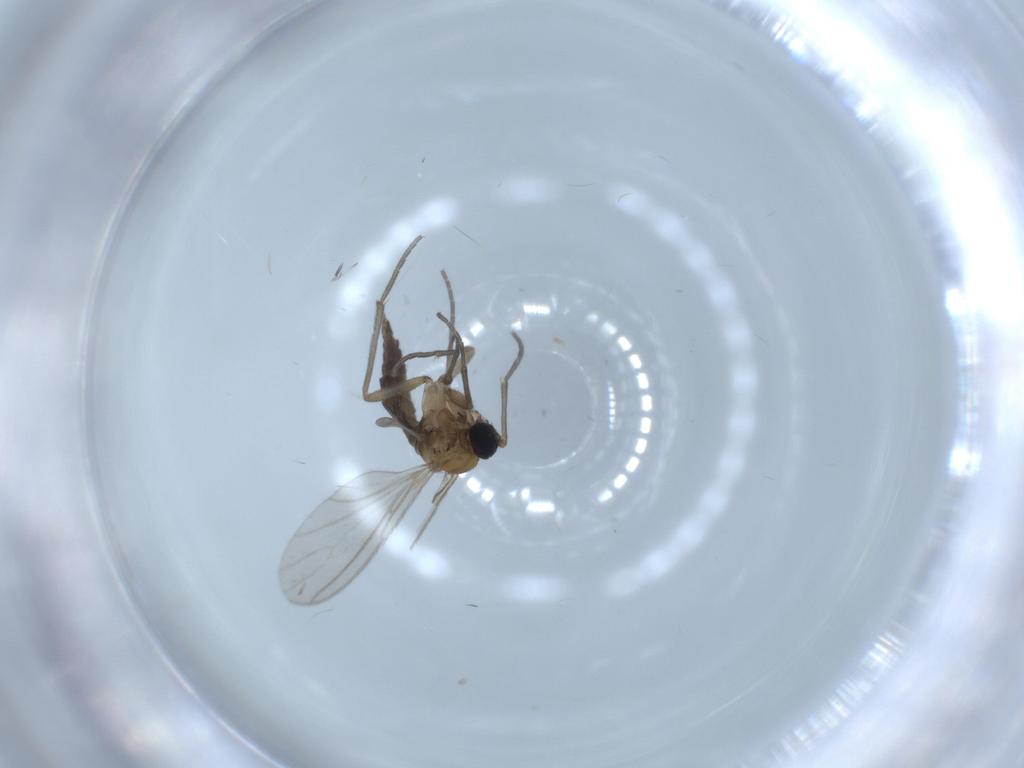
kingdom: Animalia
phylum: Arthropoda
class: Insecta
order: Diptera
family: Sciaridae
